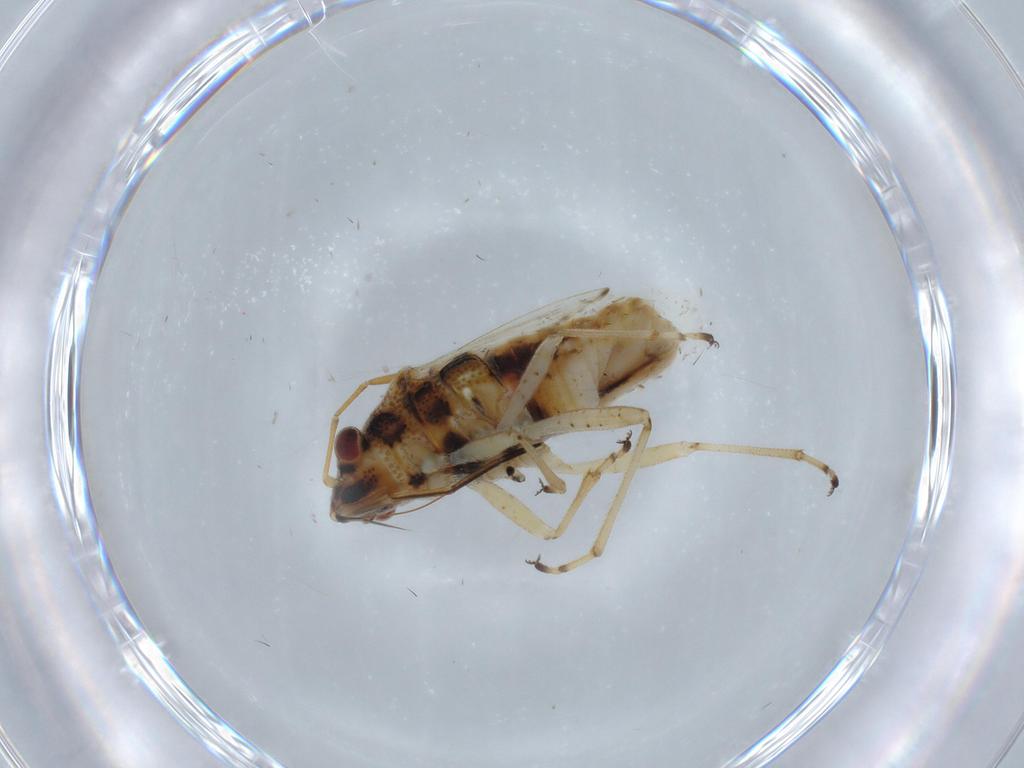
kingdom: Animalia
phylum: Arthropoda
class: Insecta
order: Hemiptera
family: Lygaeidae
